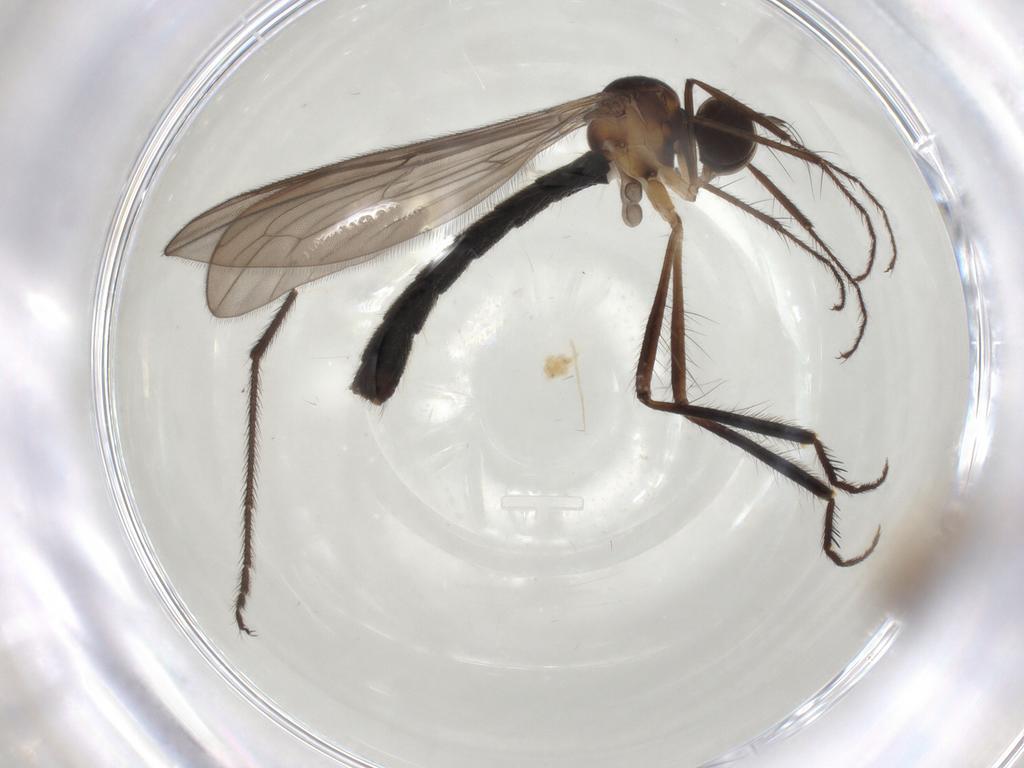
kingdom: Animalia
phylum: Arthropoda
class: Insecta
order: Diptera
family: Hybotidae
